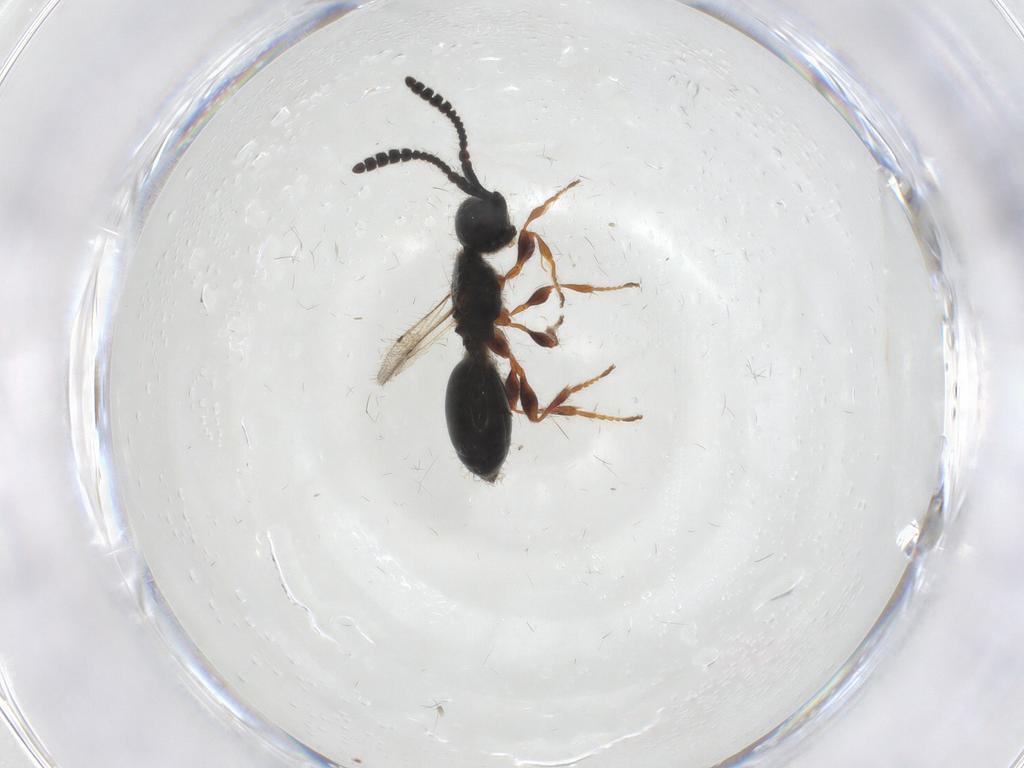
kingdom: Animalia
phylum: Arthropoda
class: Insecta
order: Hymenoptera
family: Diapriidae
